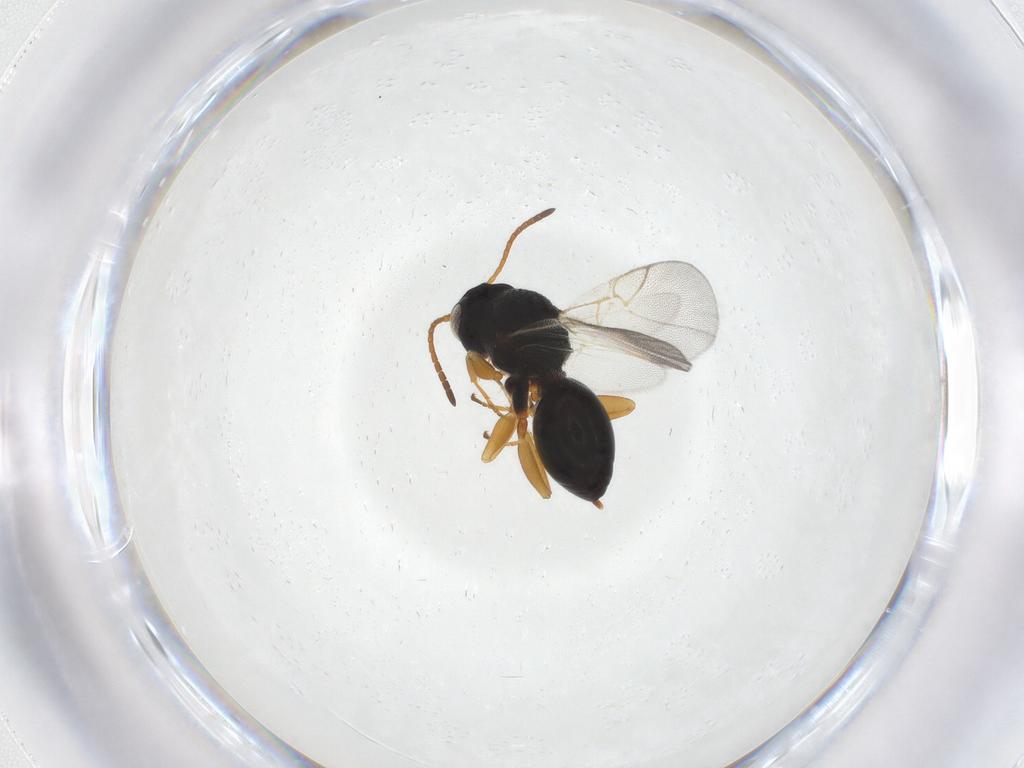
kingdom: Animalia
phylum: Arthropoda
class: Insecta
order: Hymenoptera
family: Cynipidae
